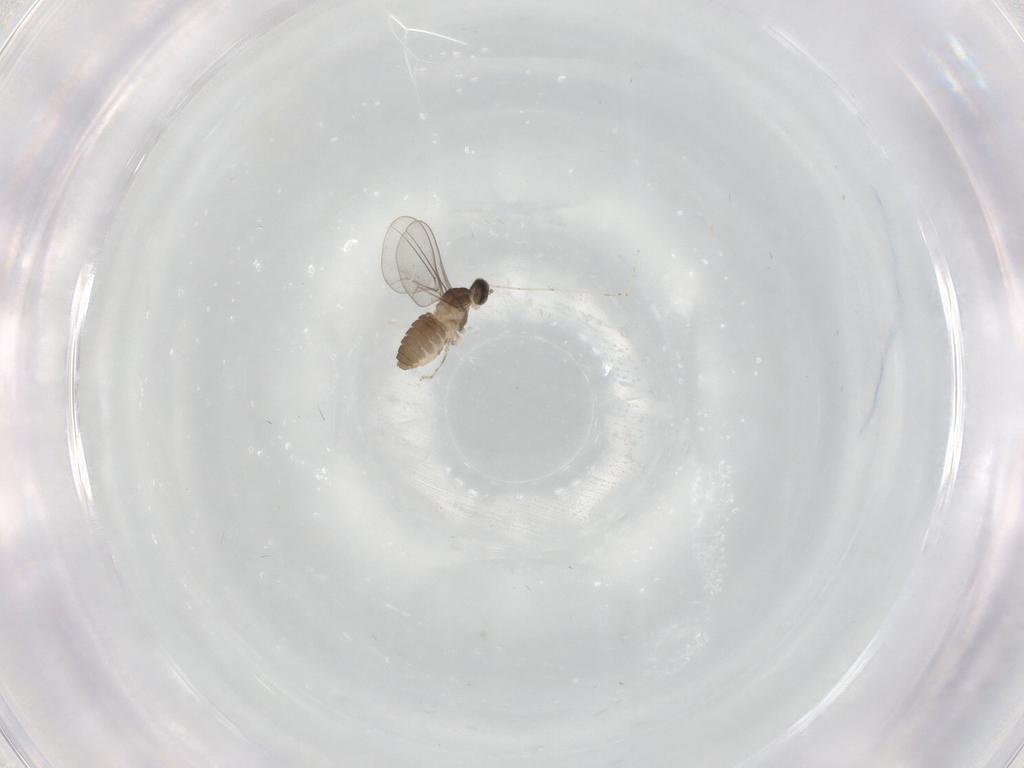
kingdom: Animalia
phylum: Arthropoda
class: Insecta
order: Diptera
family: Cecidomyiidae
